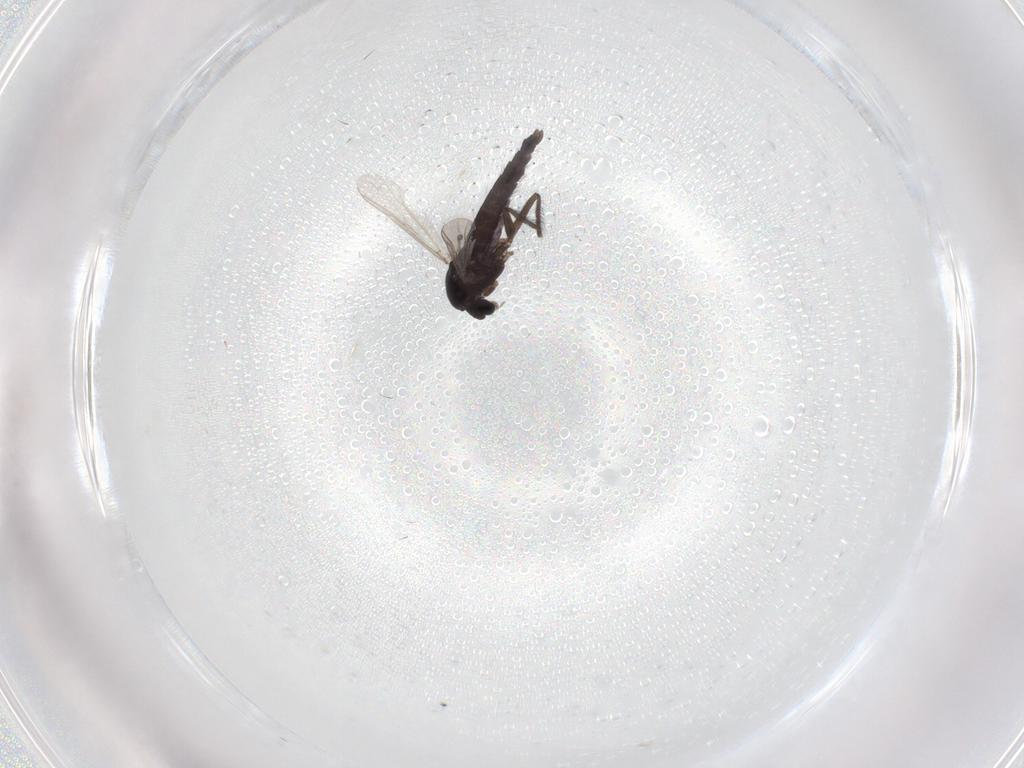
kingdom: Animalia
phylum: Arthropoda
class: Insecta
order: Diptera
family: Chironomidae
